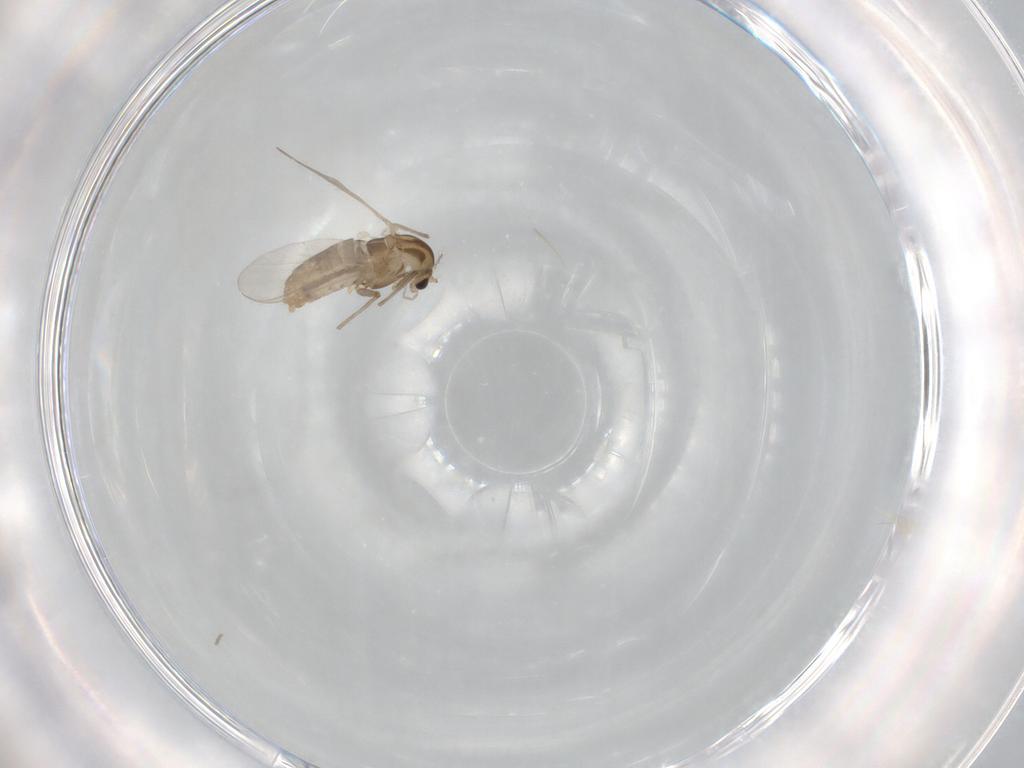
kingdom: Animalia
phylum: Arthropoda
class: Insecta
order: Diptera
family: Chironomidae
